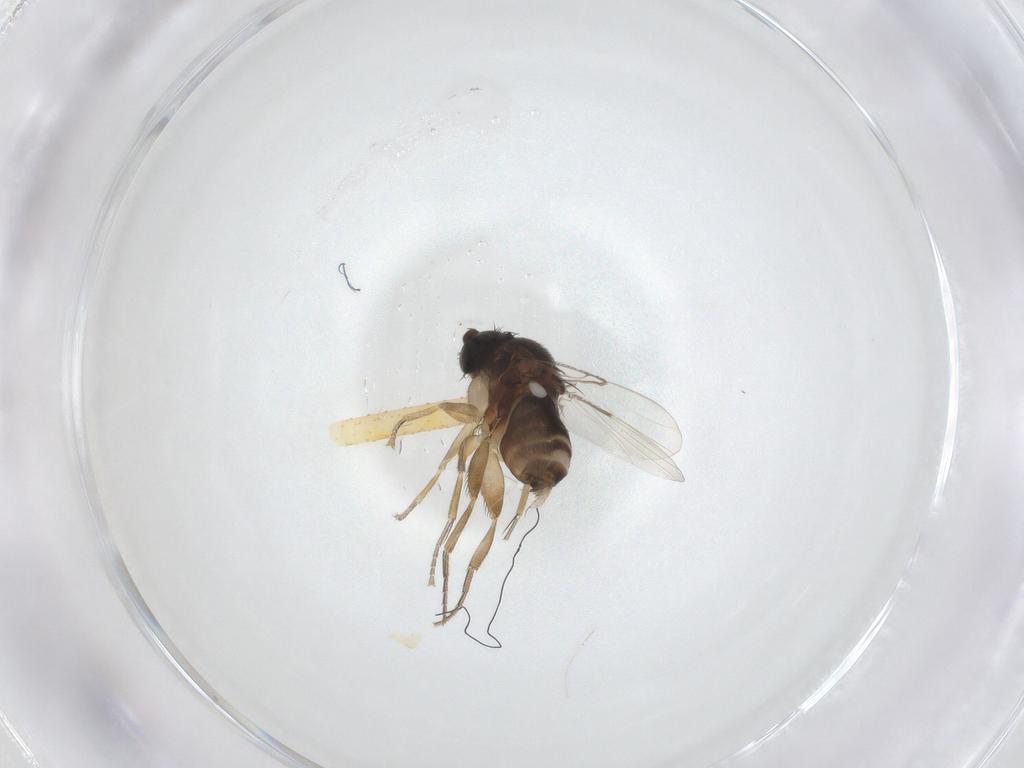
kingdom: Animalia
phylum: Arthropoda
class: Insecta
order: Diptera
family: Phoridae
